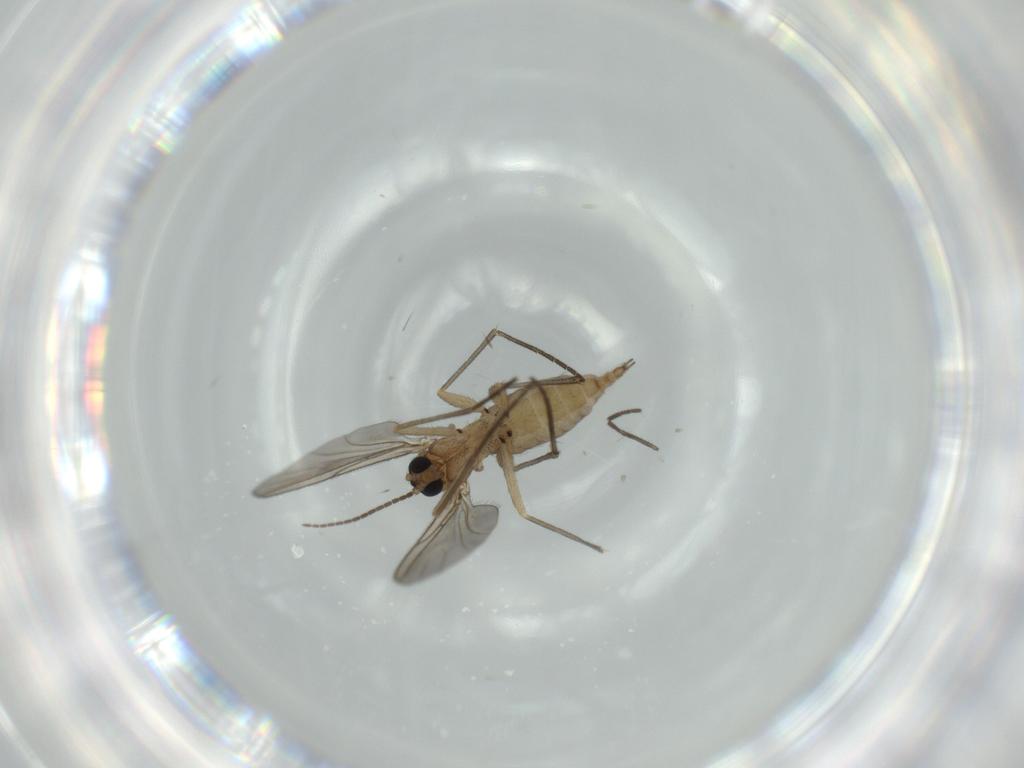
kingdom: Animalia
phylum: Arthropoda
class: Insecta
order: Diptera
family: Sciaridae
